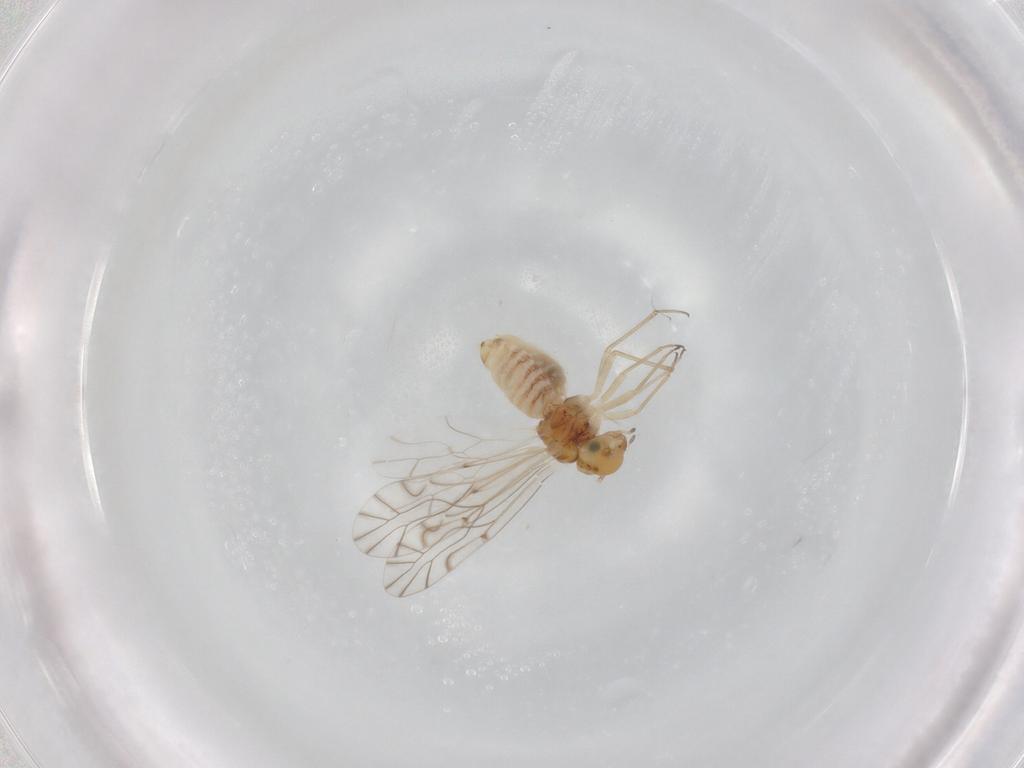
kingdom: Animalia
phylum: Arthropoda
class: Insecta
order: Psocodea
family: Lachesillidae
